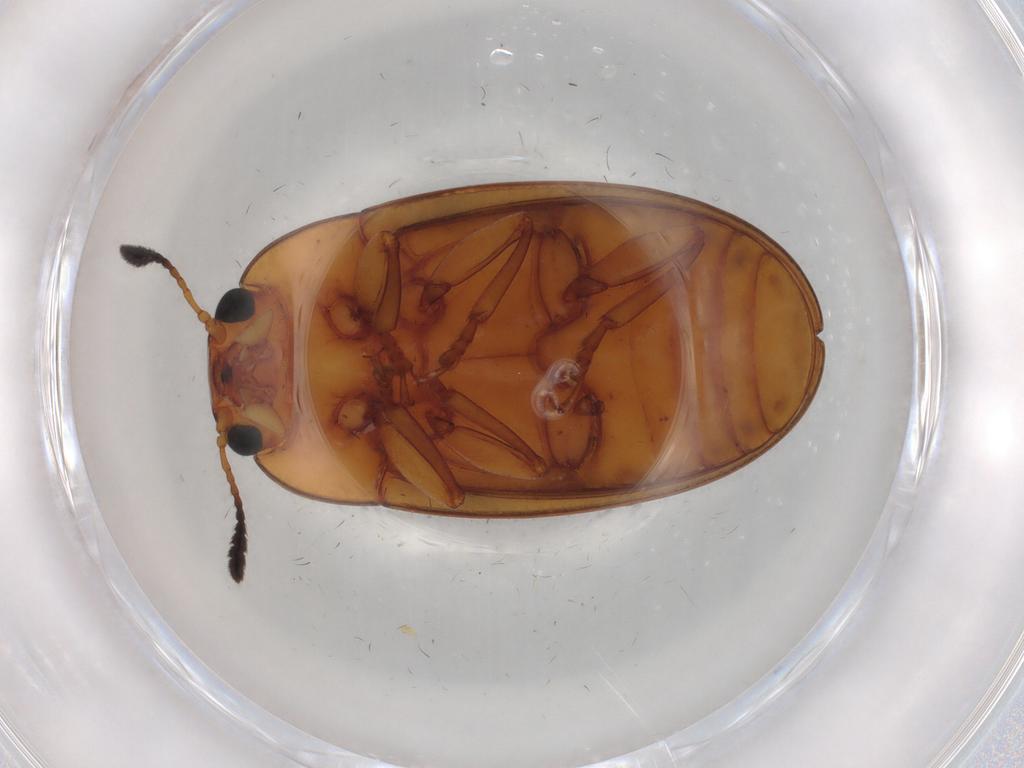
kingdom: Animalia
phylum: Arthropoda
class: Insecta
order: Coleoptera
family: Erotylidae
